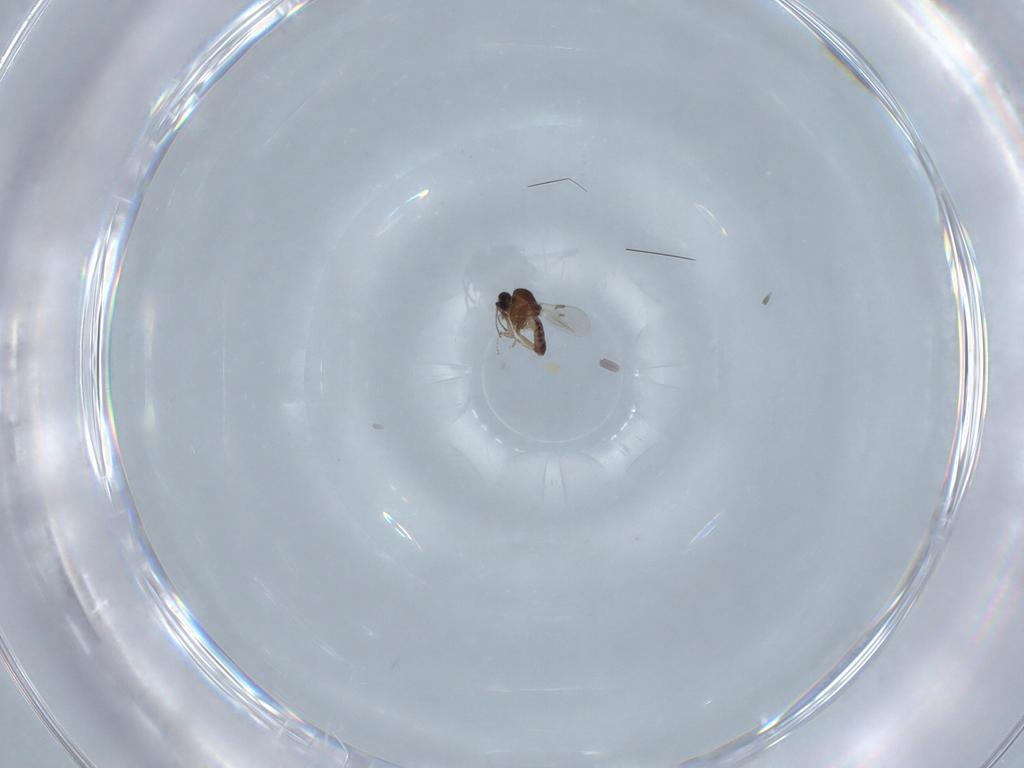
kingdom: Animalia
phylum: Arthropoda
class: Insecta
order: Diptera
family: Ceratopogonidae
